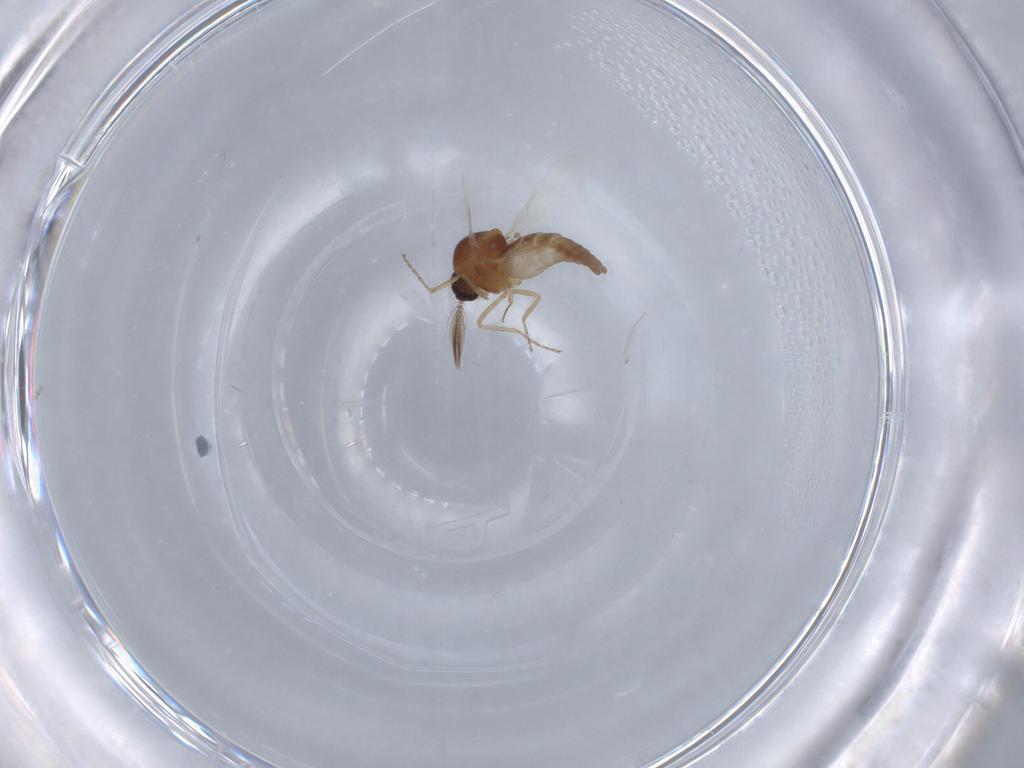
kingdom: Animalia
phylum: Arthropoda
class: Insecta
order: Diptera
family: Ceratopogonidae
